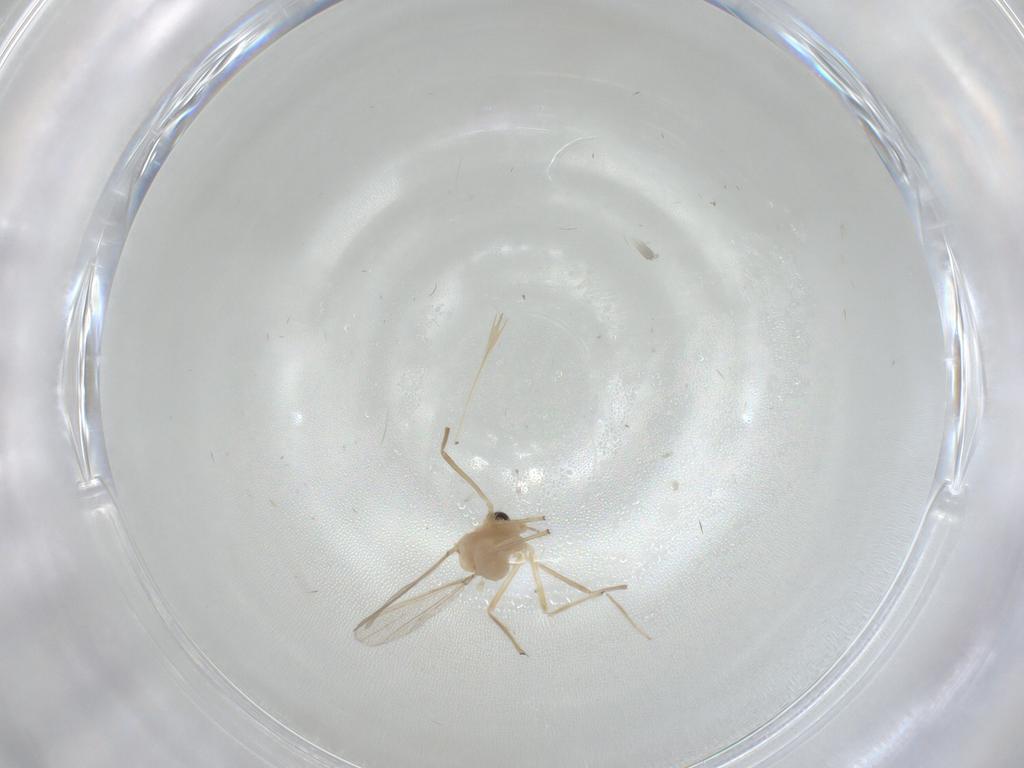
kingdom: Animalia
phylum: Arthropoda
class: Insecta
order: Diptera
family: Chironomidae
